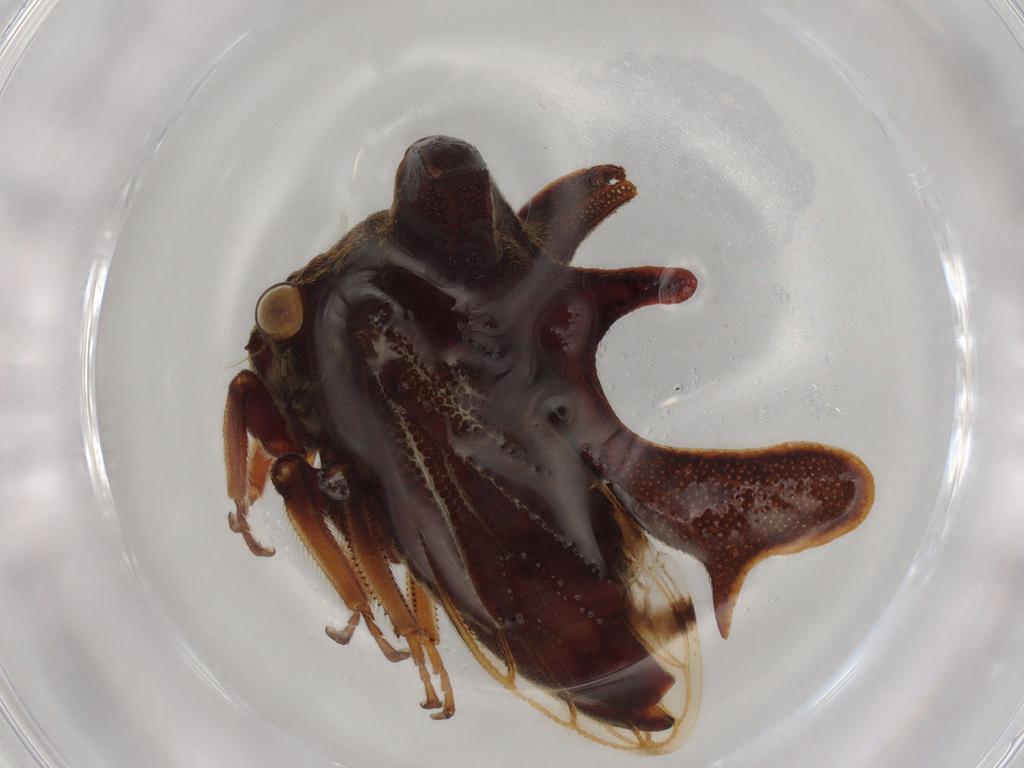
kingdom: Animalia
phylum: Arthropoda
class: Insecta
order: Hemiptera
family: Membracidae
